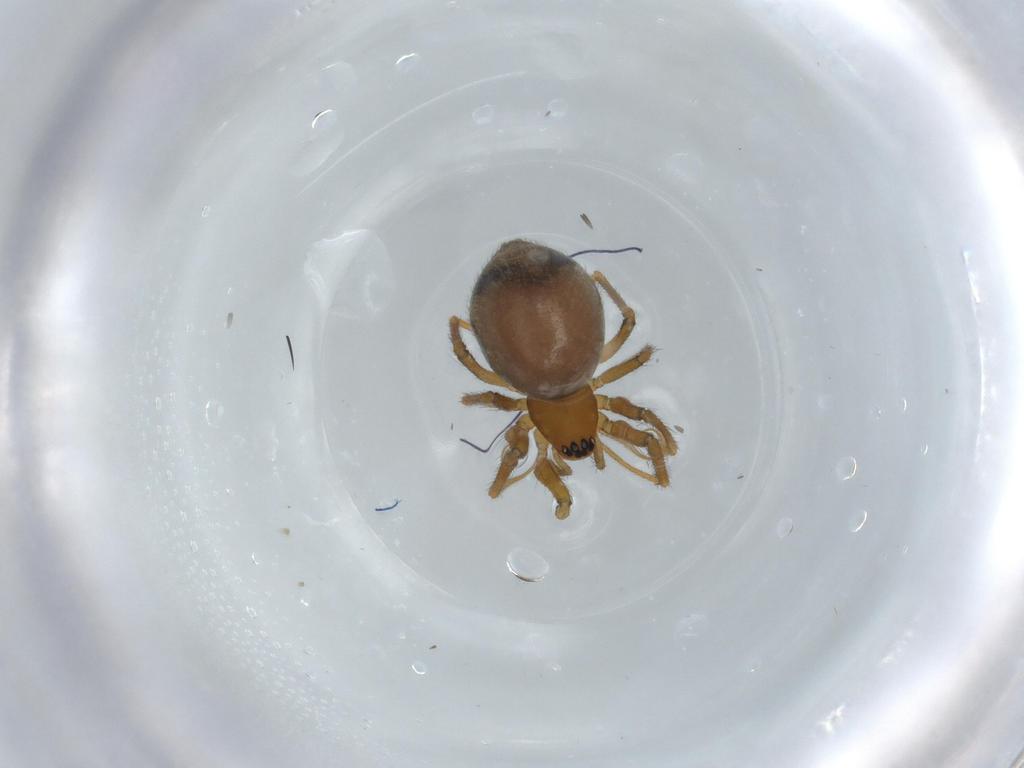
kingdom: Animalia
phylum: Arthropoda
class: Arachnida
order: Araneae
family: Linyphiidae
